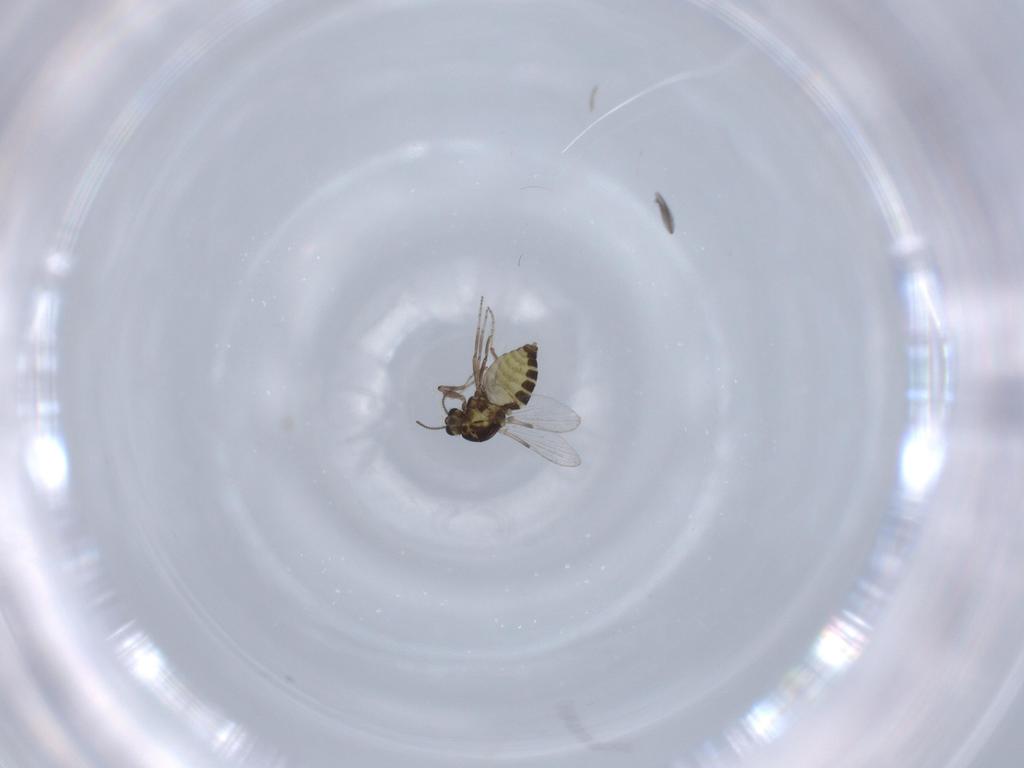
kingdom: Animalia
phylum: Arthropoda
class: Insecta
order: Diptera
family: Ceratopogonidae
